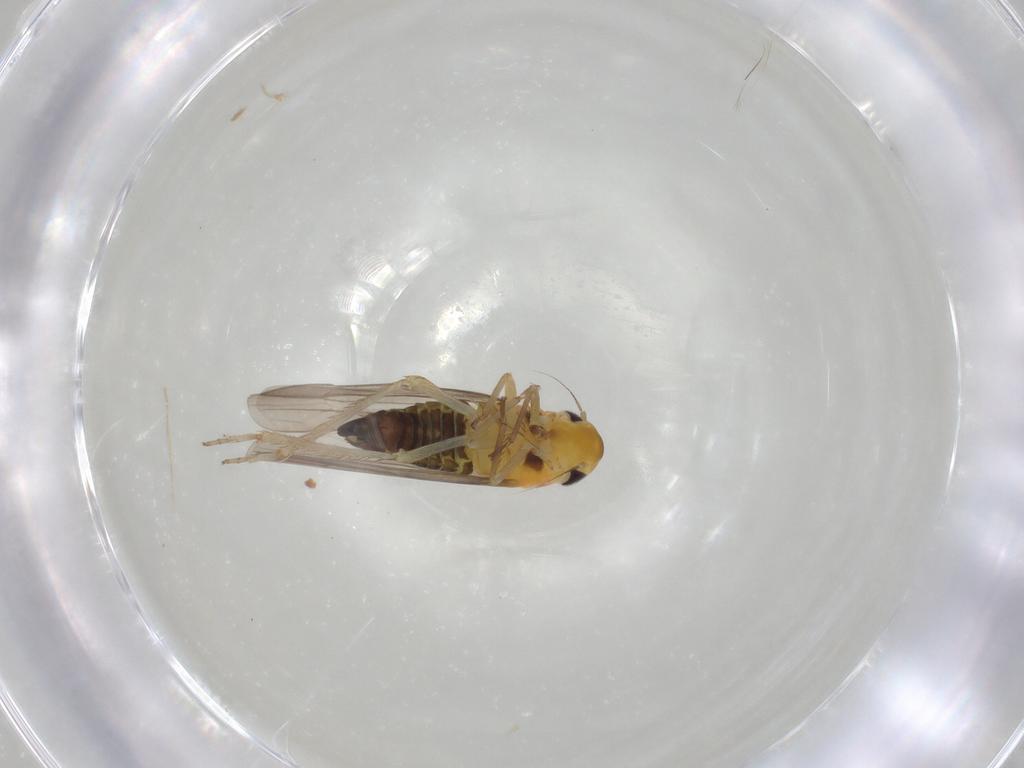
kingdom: Animalia
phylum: Arthropoda
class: Insecta
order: Hemiptera
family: Cicadellidae
